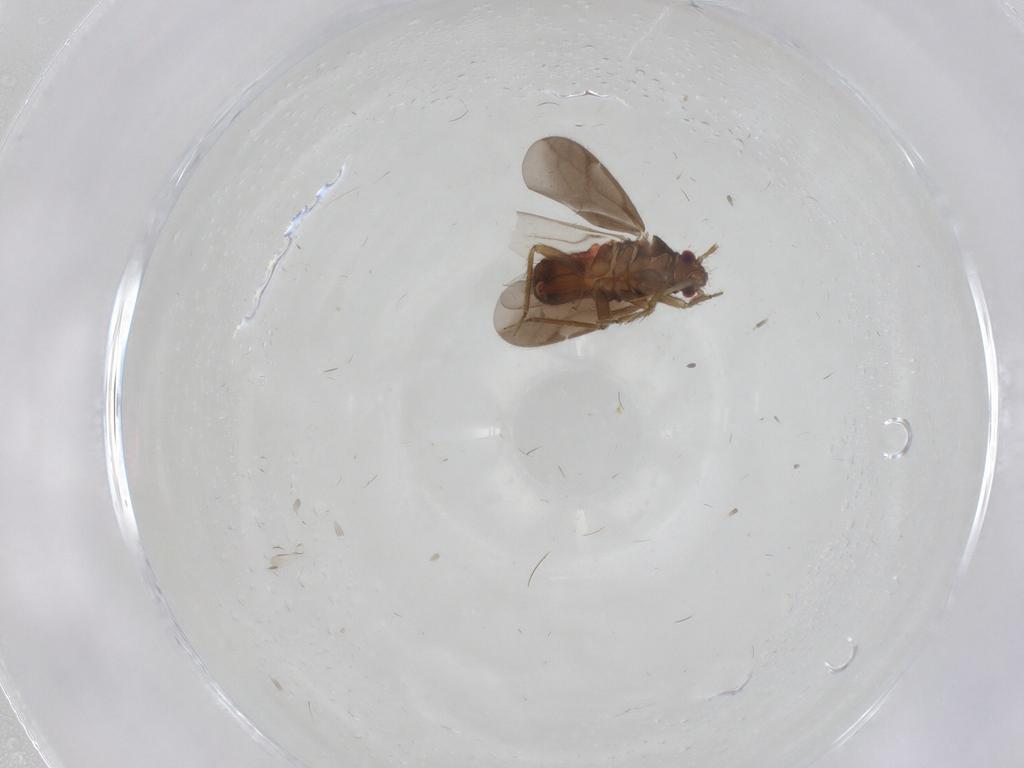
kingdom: Animalia
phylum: Arthropoda
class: Insecta
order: Hemiptera
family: Ceratocombidae
